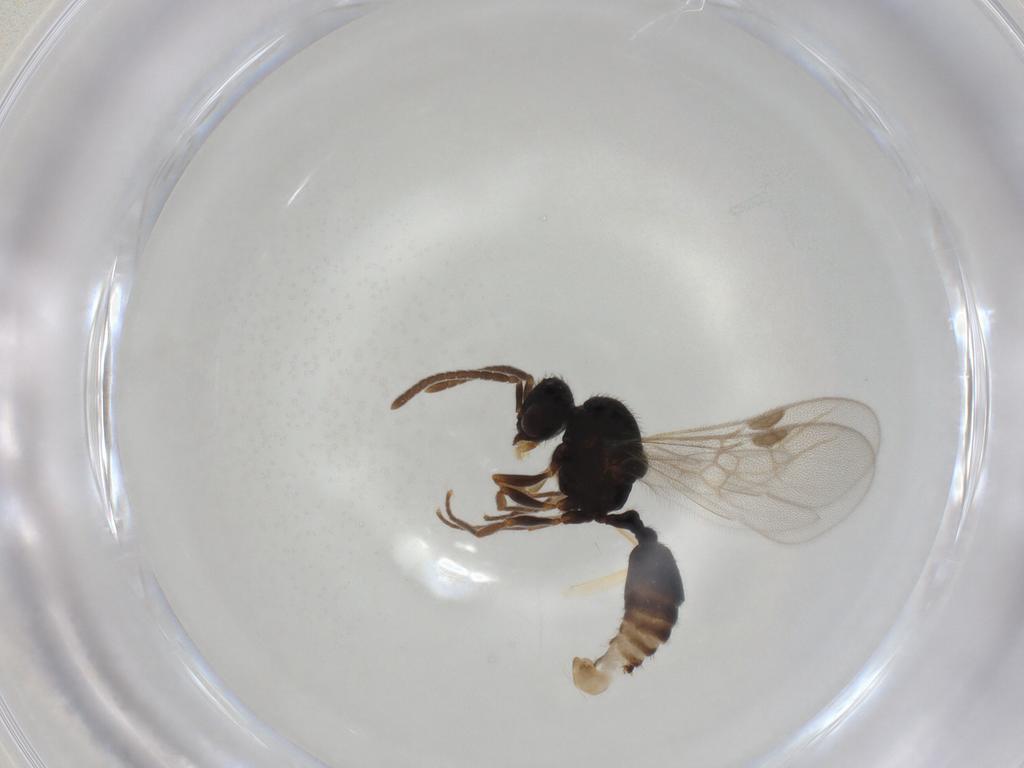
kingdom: Animalia
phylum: Arthropoda
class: Insecta
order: Hymenoptera
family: Formicidae
